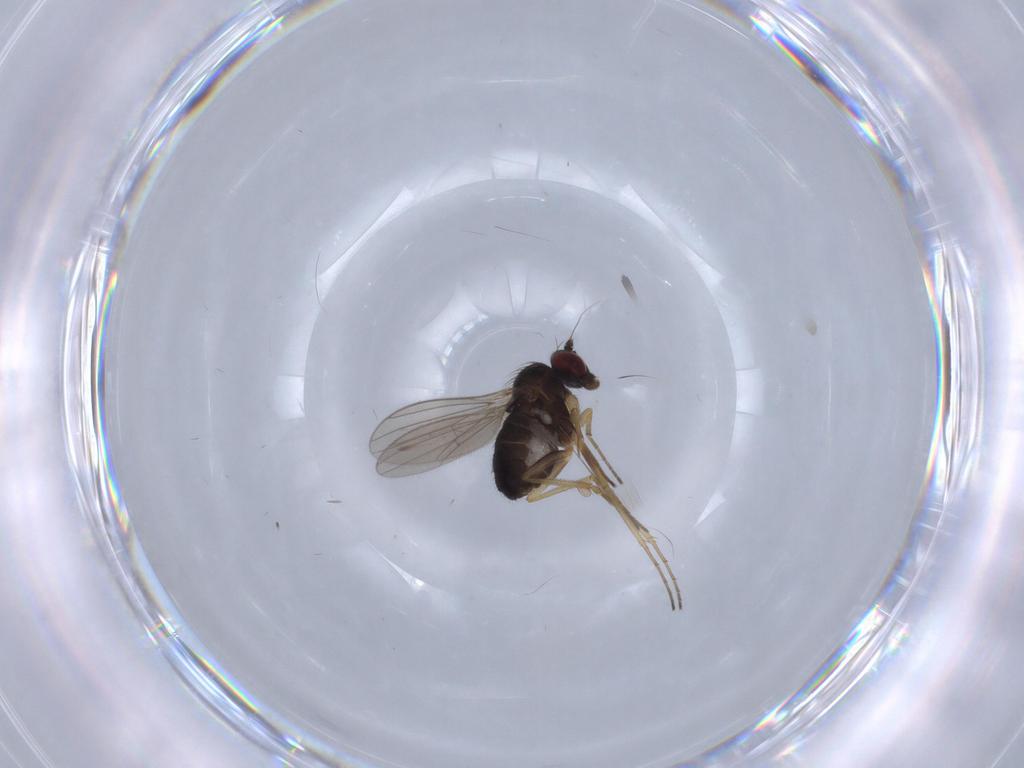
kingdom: Animalia
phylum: Arthropoda
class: Insecta
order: Diptera
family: Dolichopodidae
